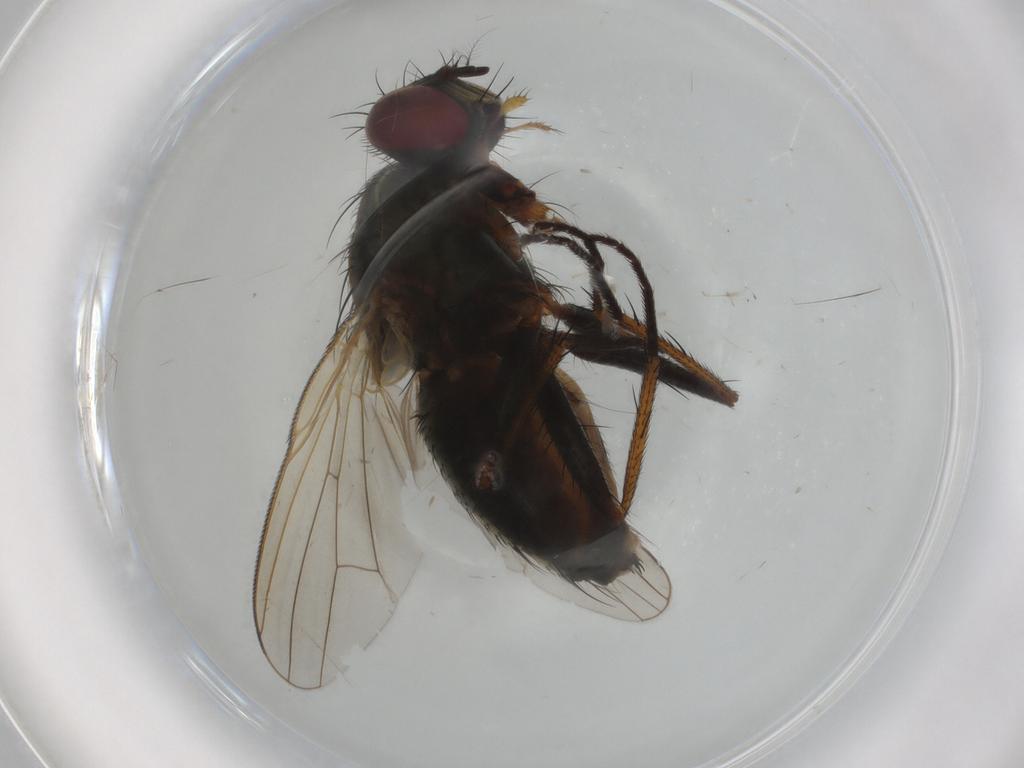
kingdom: Animalia
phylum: Arthropoda
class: Insecta
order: Diptera
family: Muscidae
